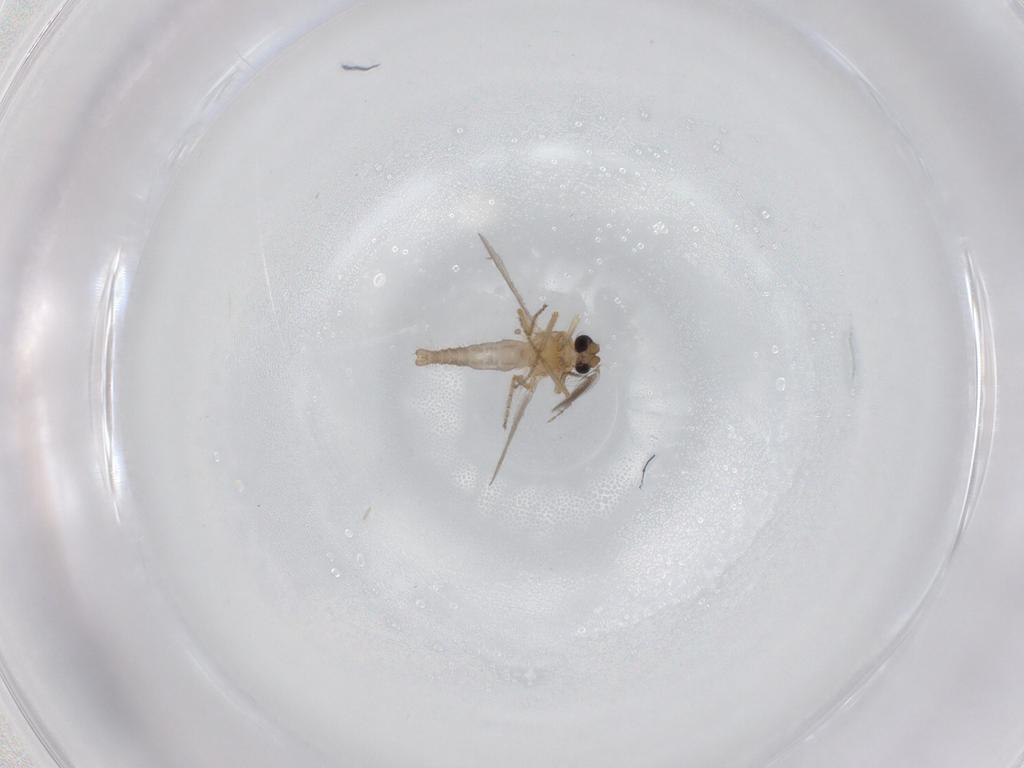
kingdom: Animalia
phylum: Arthropoda
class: Insecta
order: Diptera
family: Ceratopogonidae
